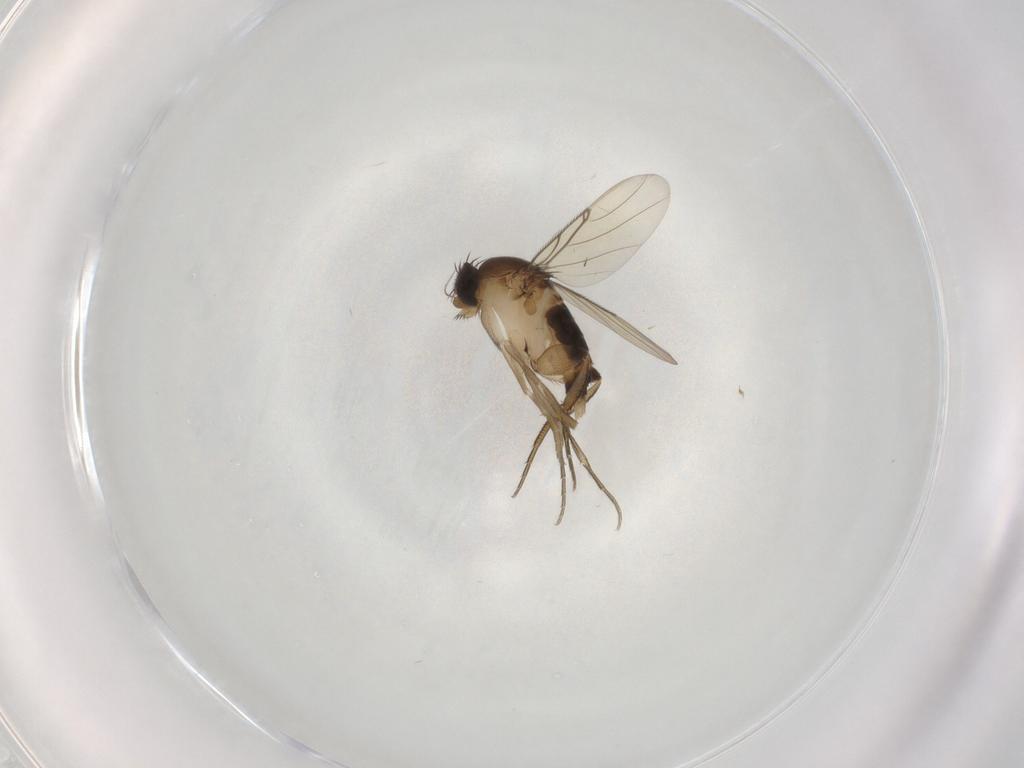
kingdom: Animalia
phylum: Arthropoda
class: Insecta
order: Diptera
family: Phoridae
